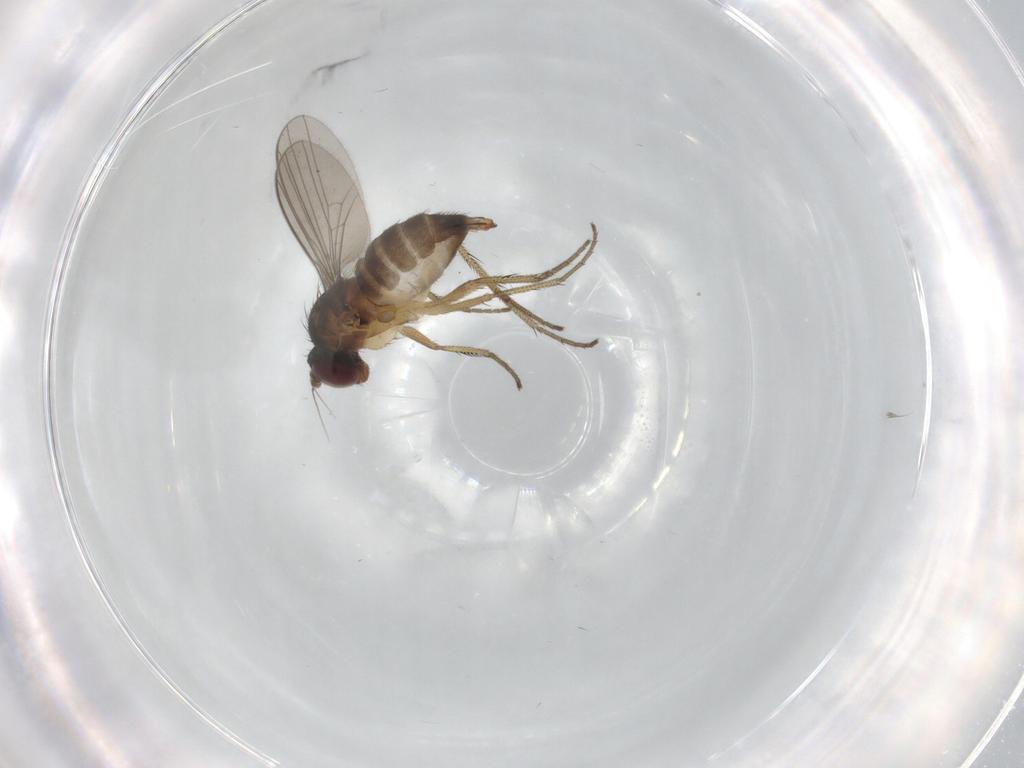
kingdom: Animalia
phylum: Arthropoda
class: Insecta
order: Diptera
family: Dolichopodidae
